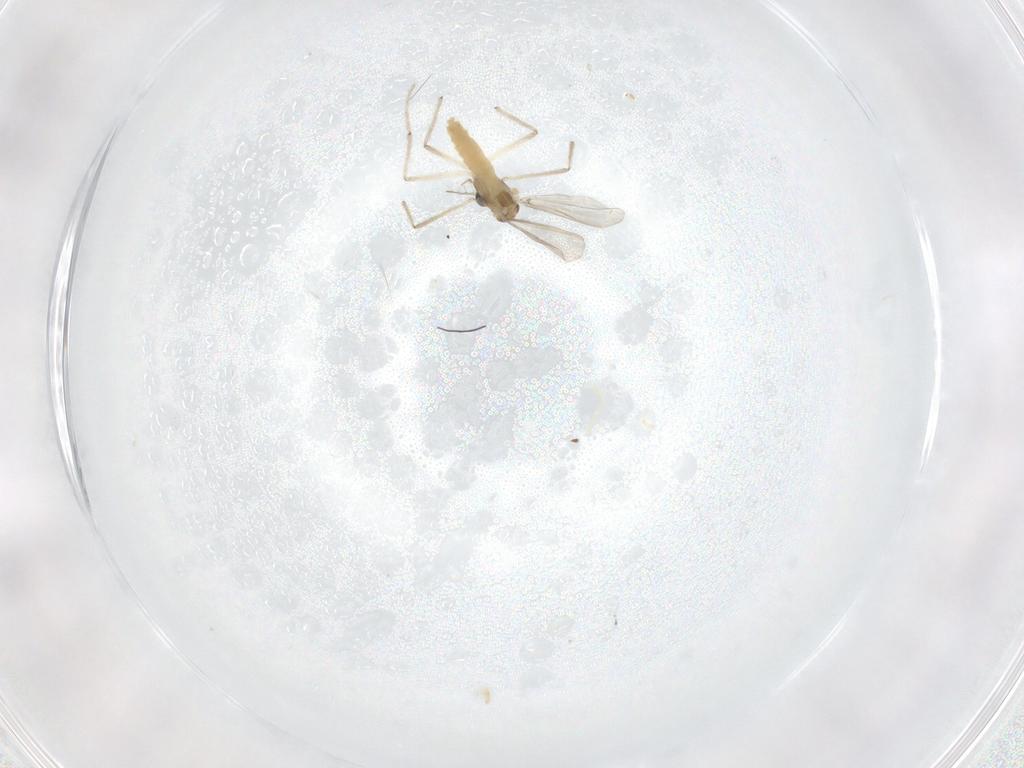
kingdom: Animalia
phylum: Arthropoda
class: Insecta
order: Diptera
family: Chironomidae
